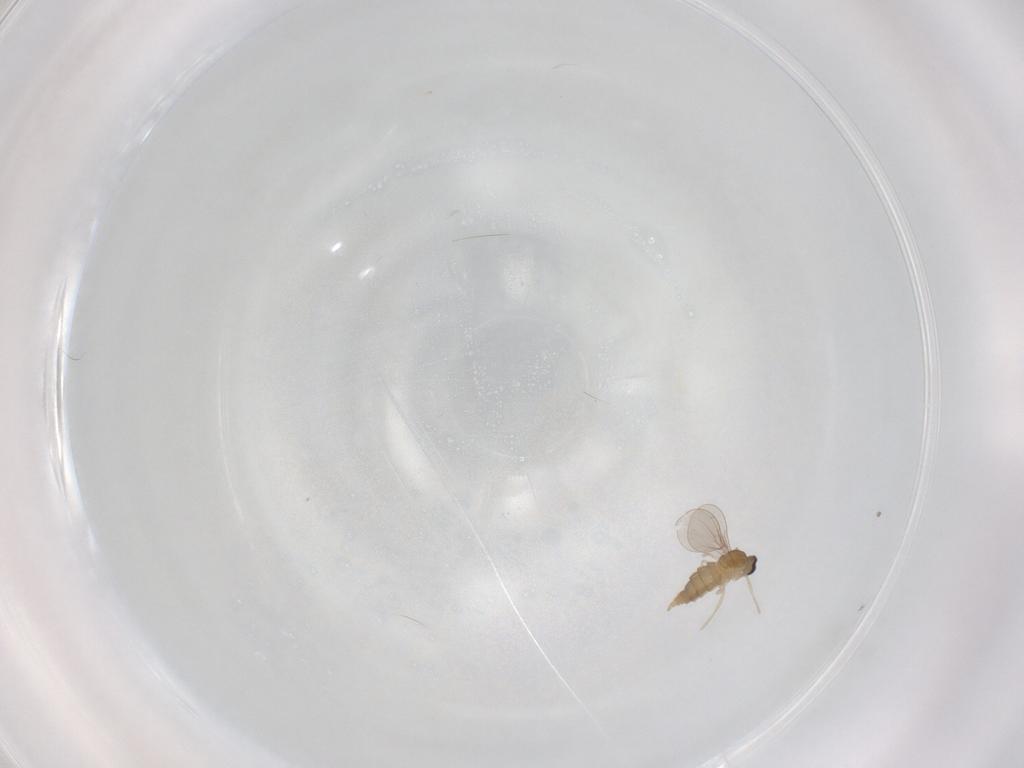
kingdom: Animalia
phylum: Arthropoda
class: Insecta
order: Diptera
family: Cecidomyiidae
